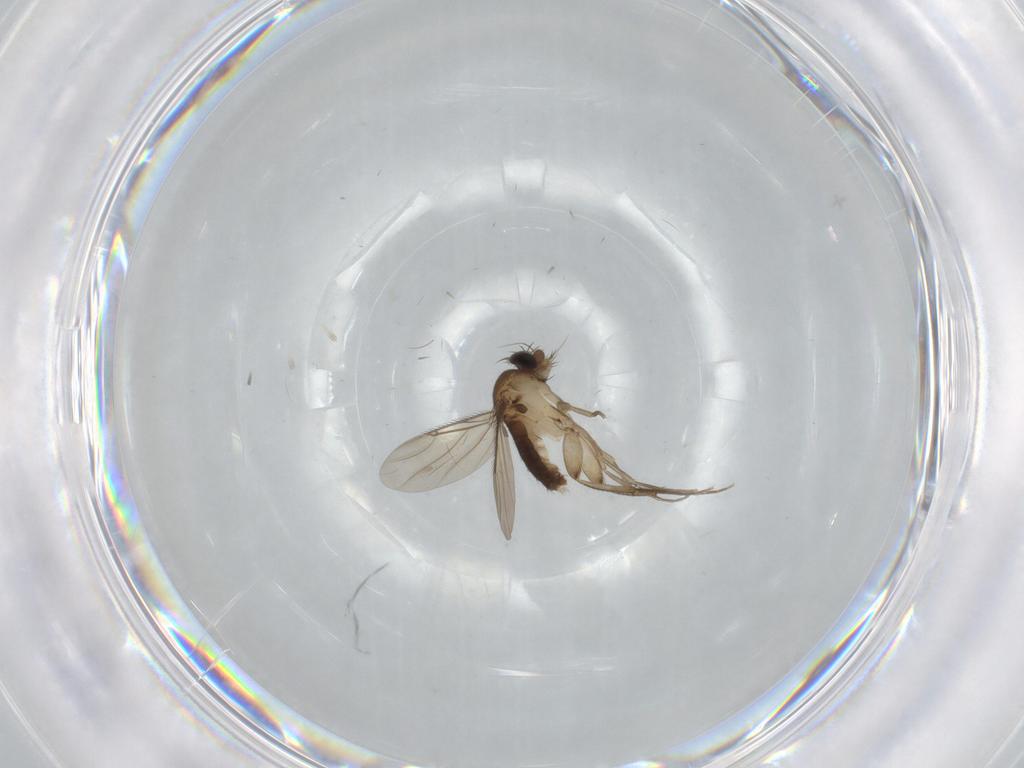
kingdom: Animalia
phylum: Arthropoda
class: Insecta
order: Diptera
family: Phoridae
